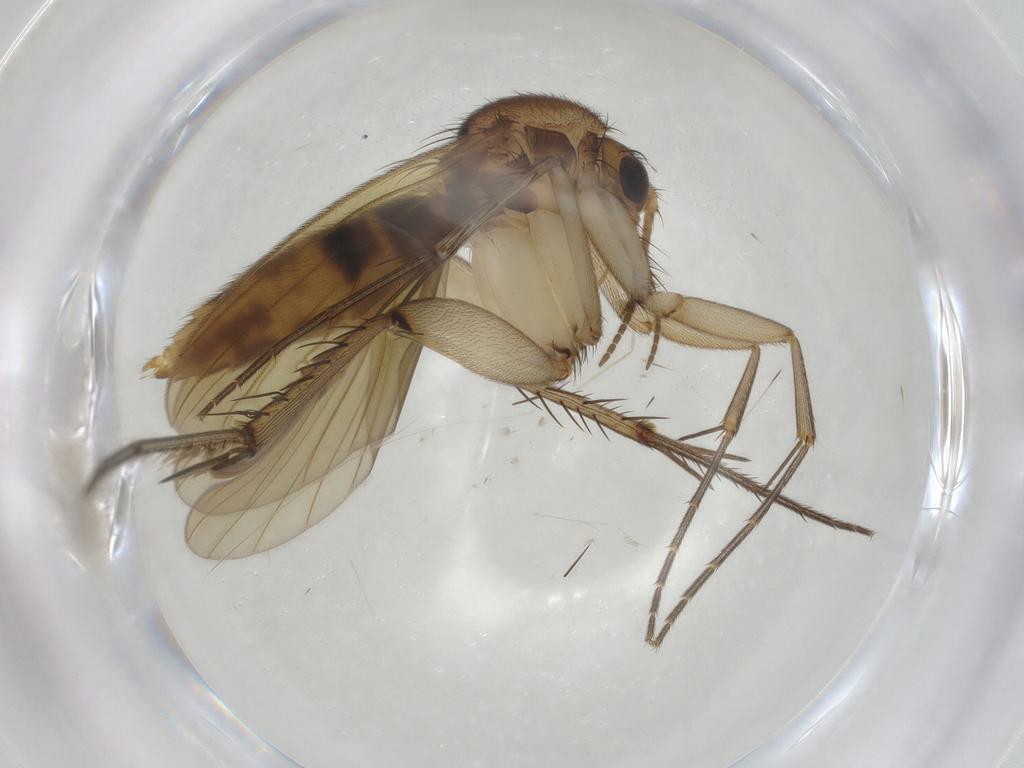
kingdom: Animalia
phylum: Arthropoda
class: Insecta
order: Diptera
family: Mycetophilidae
